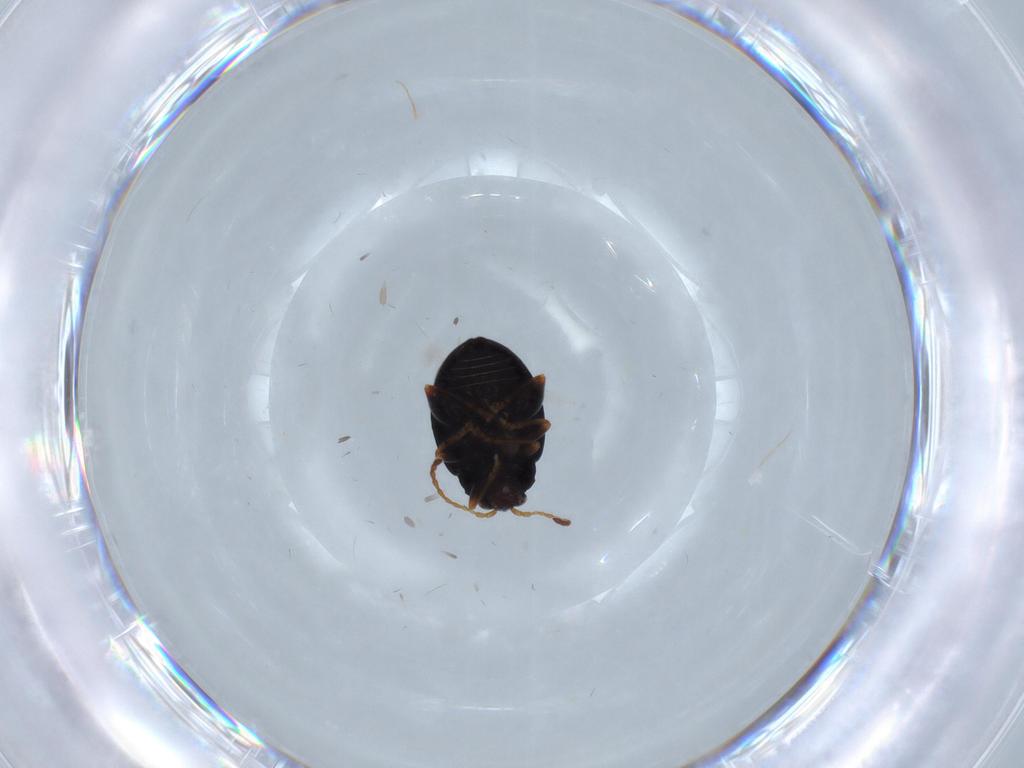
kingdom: Animalia
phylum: Arthropoda
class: Insecta
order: Coleoptera
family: Chrysomelidae
